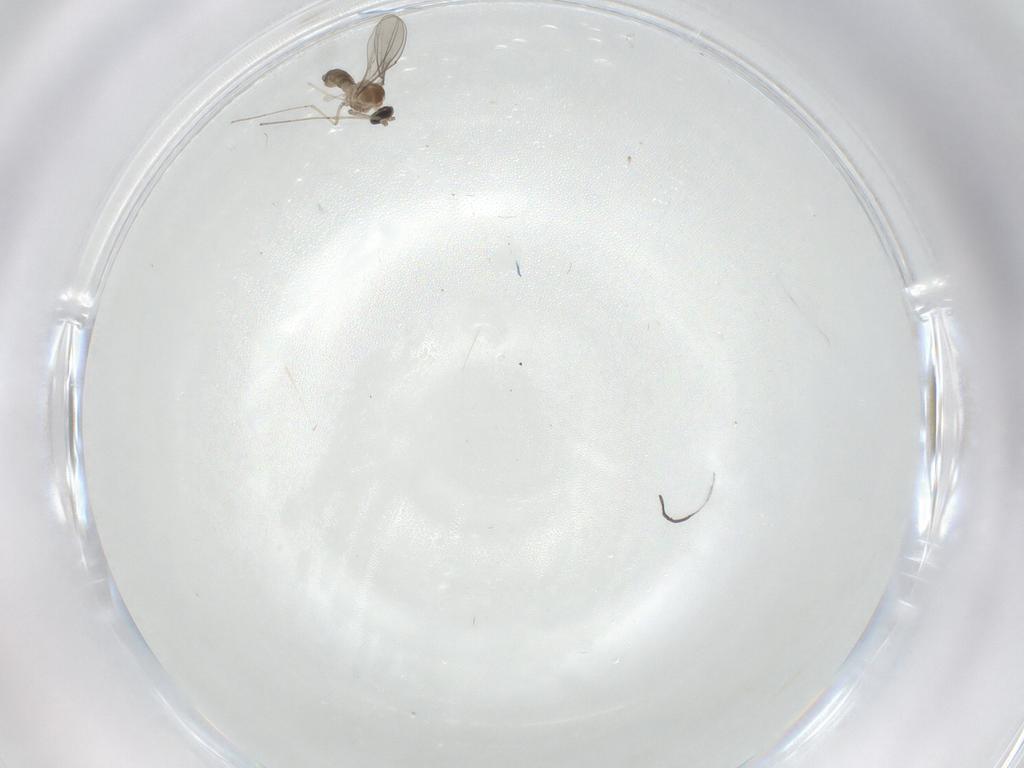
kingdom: Animalia
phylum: Arthropoda
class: Insecta
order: Diptera
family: Cecidomyiidae
